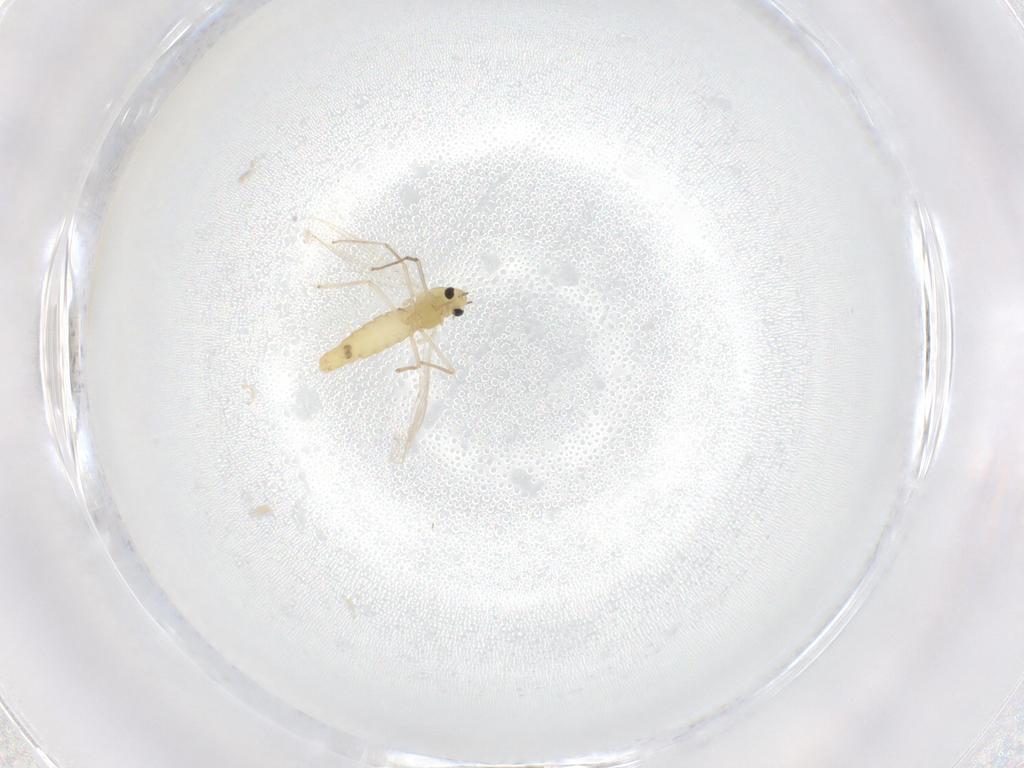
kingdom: Animalia
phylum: Arthropoda
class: Insecta
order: Diptera
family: Chironomidae
